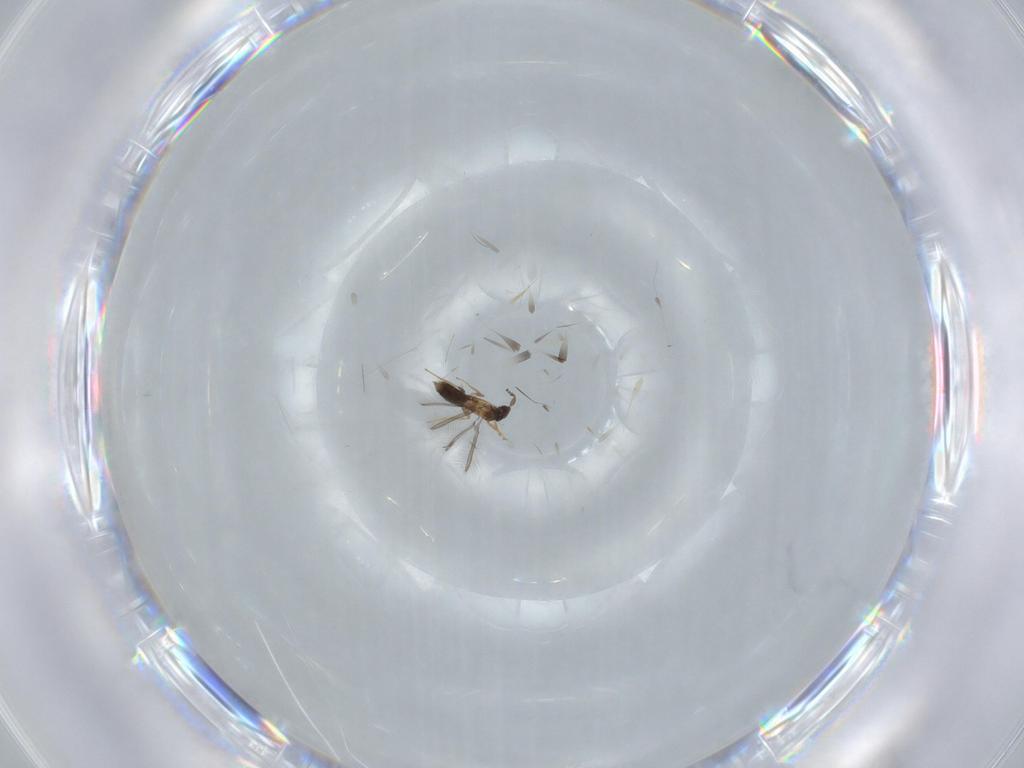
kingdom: Animalia
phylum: Arthropoda
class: Insecta
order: Hymenoptera
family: Mymaridae
